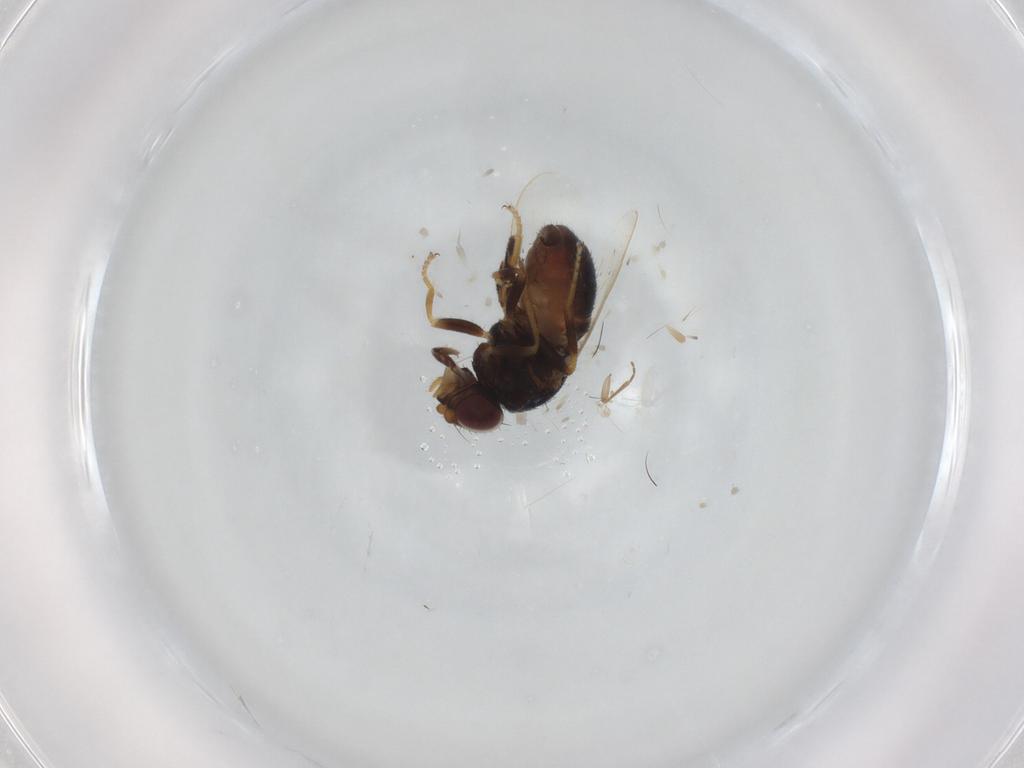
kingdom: Animalia
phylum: Arthropoda
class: Insecta
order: Diptera
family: Chloropidae
